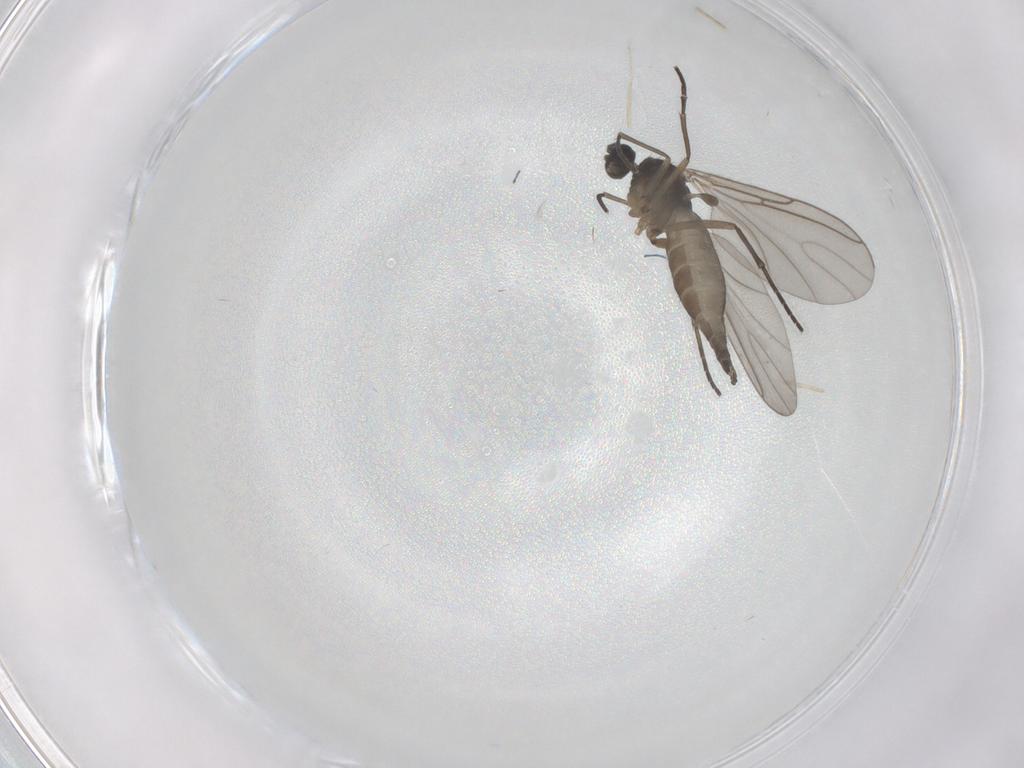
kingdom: Animalia
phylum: Arthropoda
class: Insecta
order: Diptera
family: Sciaridae
